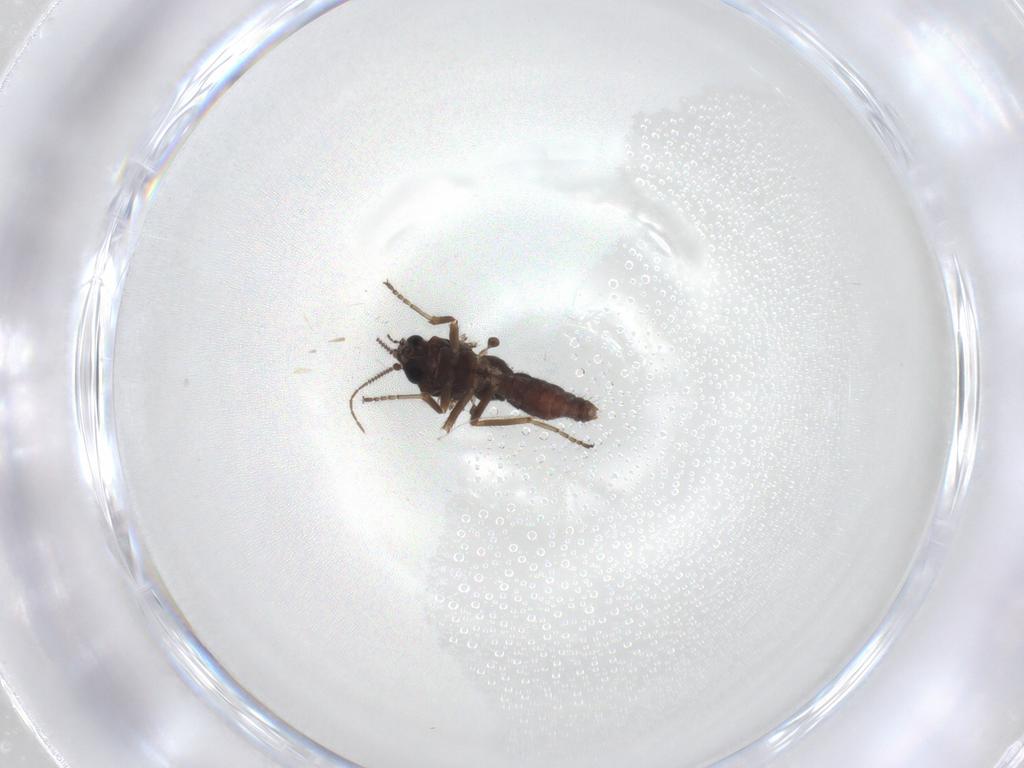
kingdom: Animalia
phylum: Arthropoda
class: Insecta
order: Diptera
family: Ceratopogonidae
